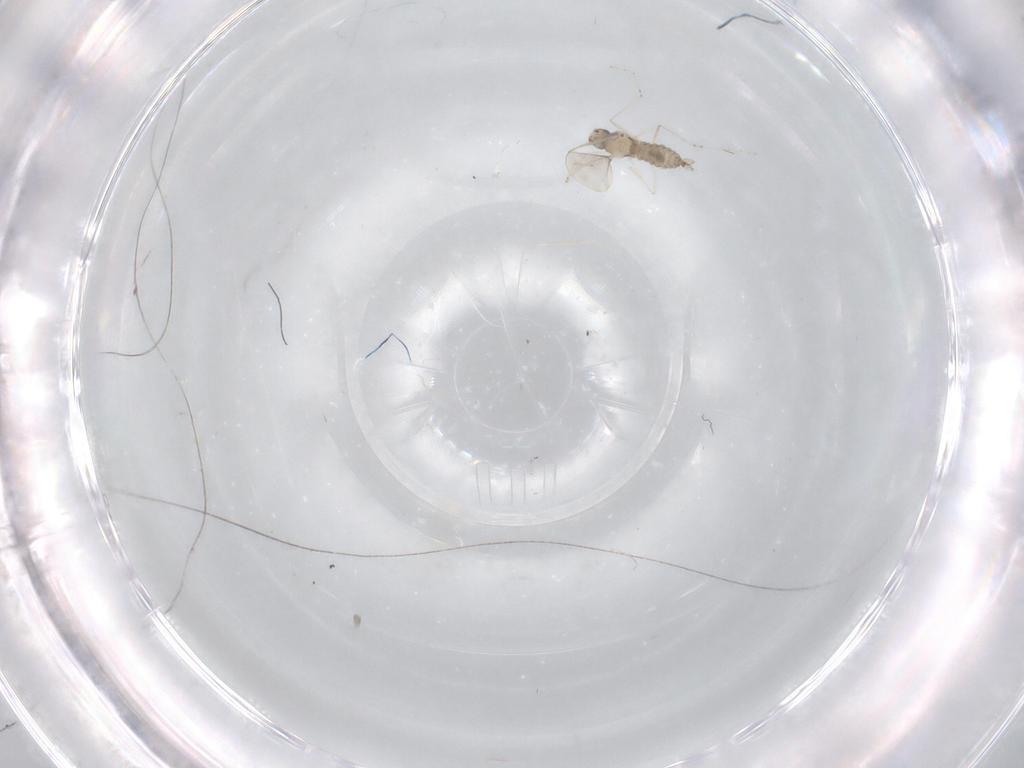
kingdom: Animalia
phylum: Arthropoda
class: Insecta
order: Diptera
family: Cecidomyiidae
